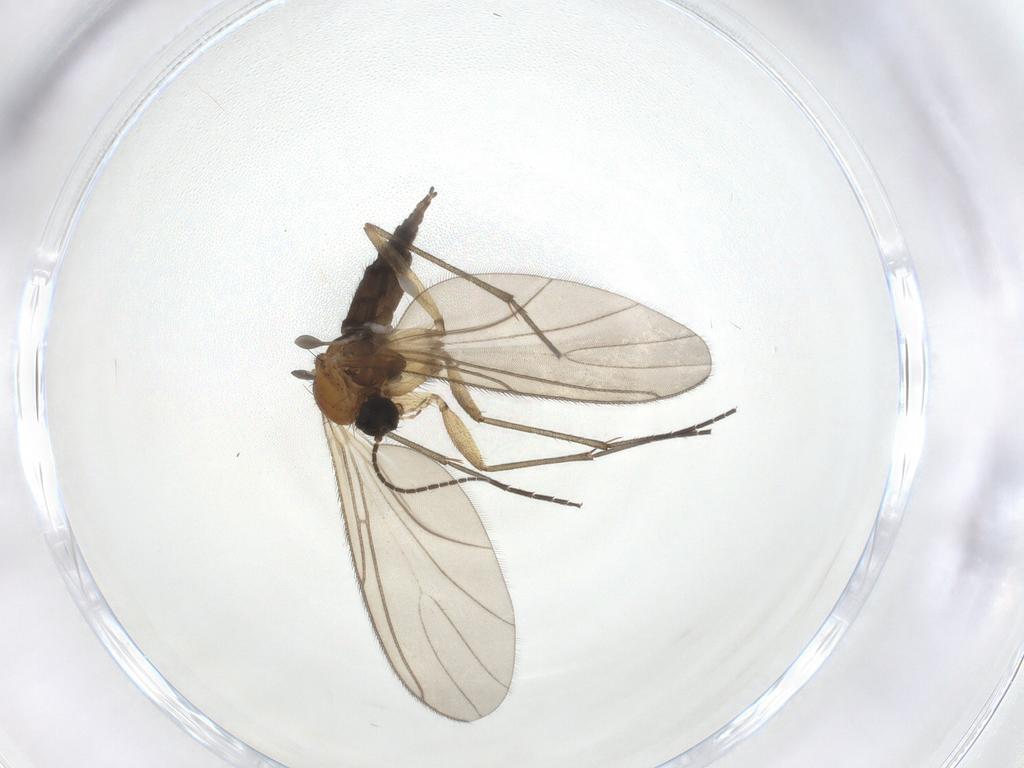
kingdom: Animalia
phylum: Arthropoda
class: Insecta
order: Diptera
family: Sciaridae
